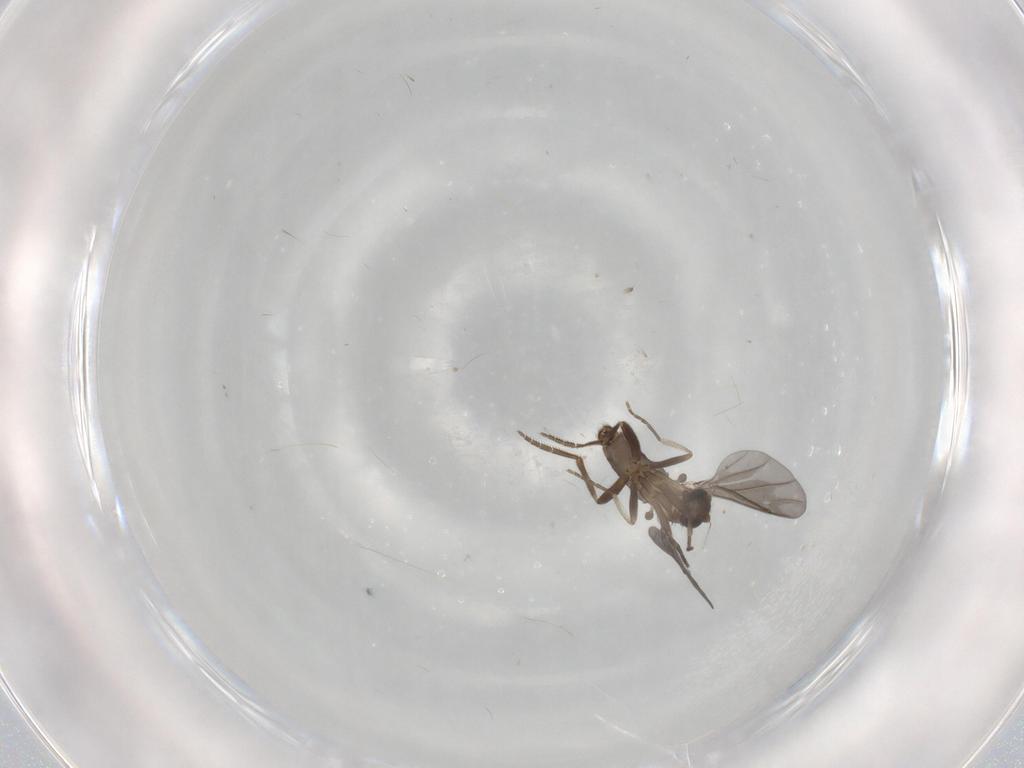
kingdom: Animalia
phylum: Arthropoda
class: Insecta
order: Diptera
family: Phoridae
